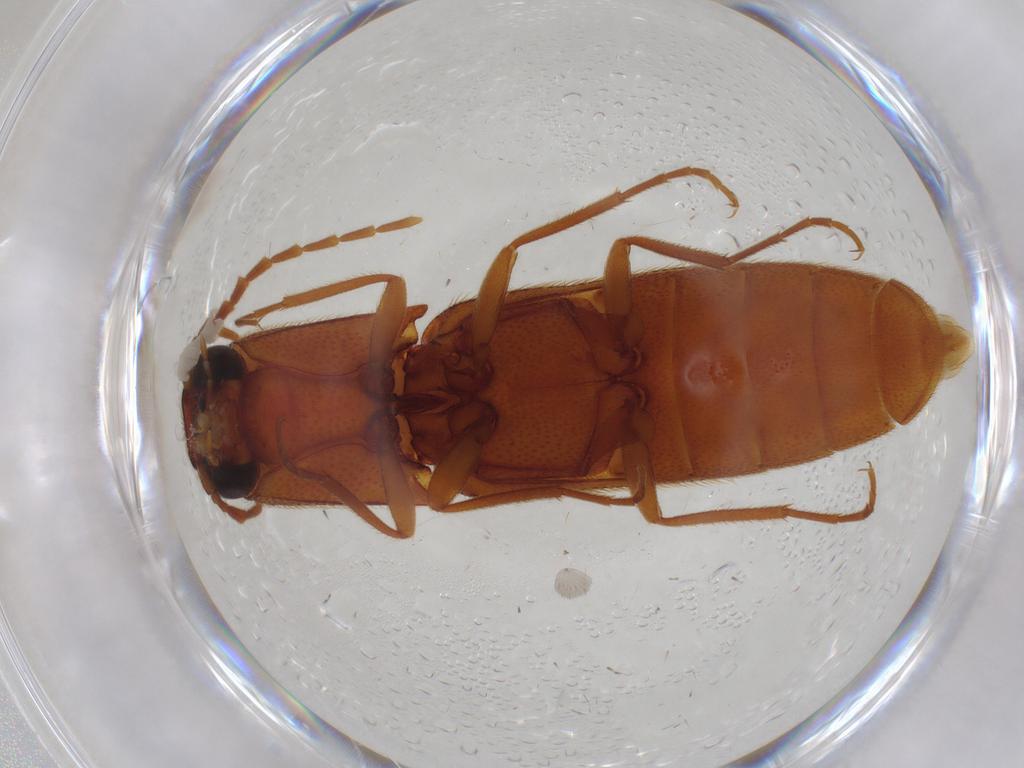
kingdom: Animalia
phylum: Arthropoda
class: Insecta
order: Coleoptera
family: Elateridae
